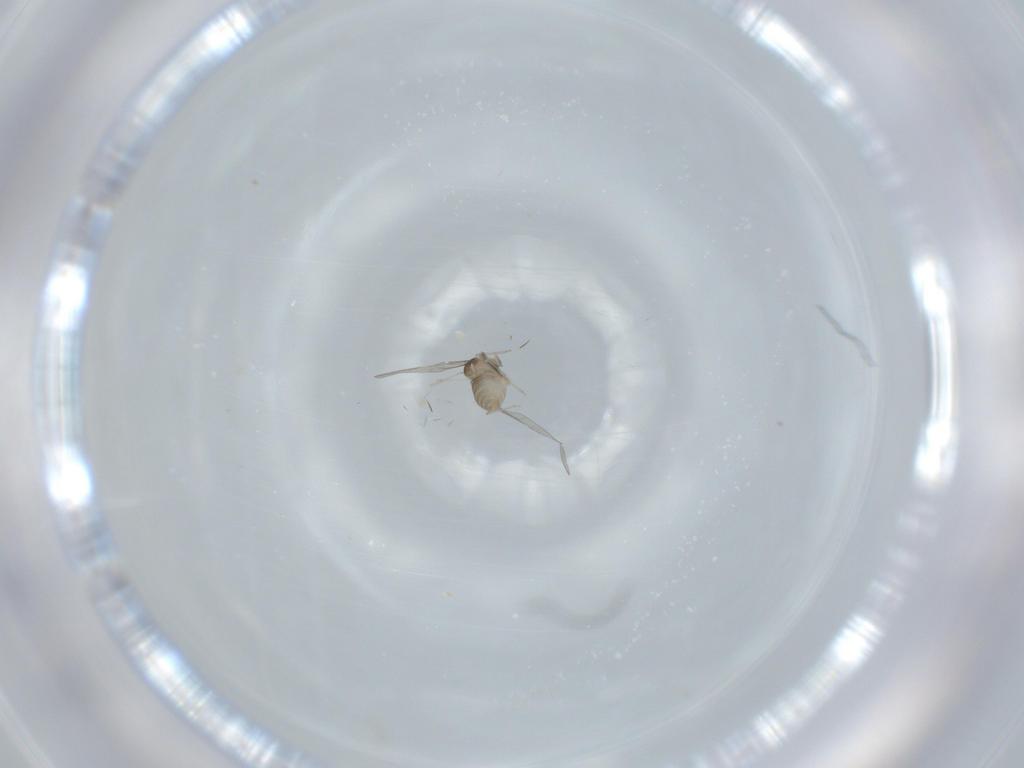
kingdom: Animalia
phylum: Arthropoda
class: Insecta
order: Diptera
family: Cecidomyiidae
